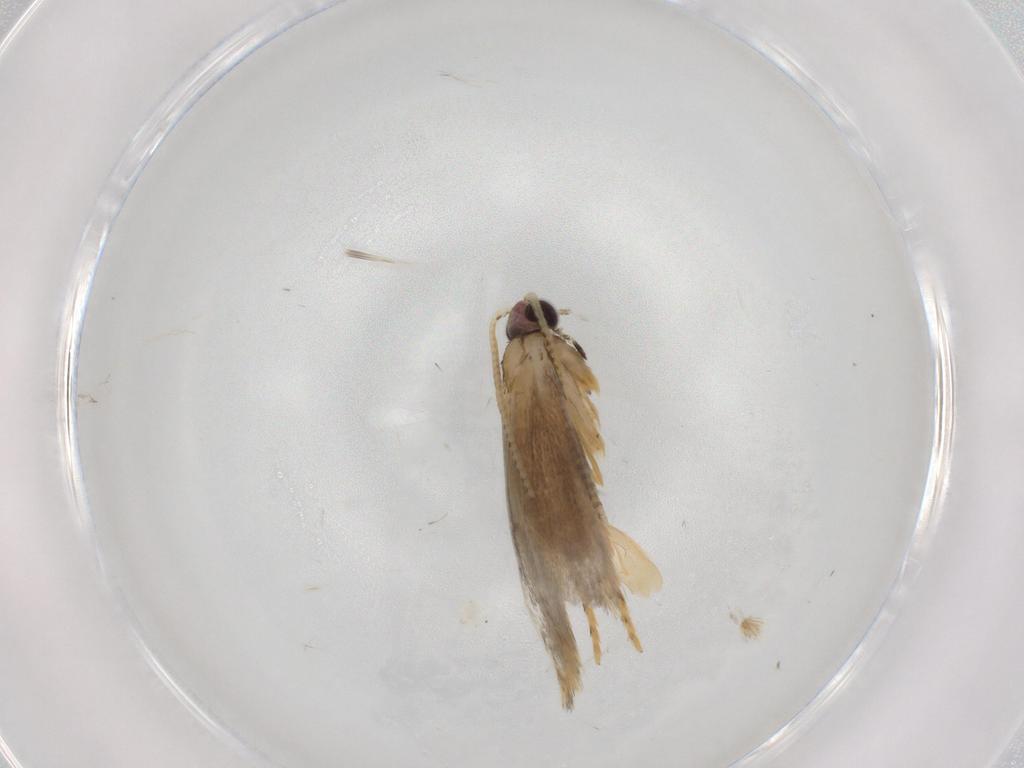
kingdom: Animalia
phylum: Arthropoda
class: Insecta
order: Lepidoptera
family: Nepticulidae
